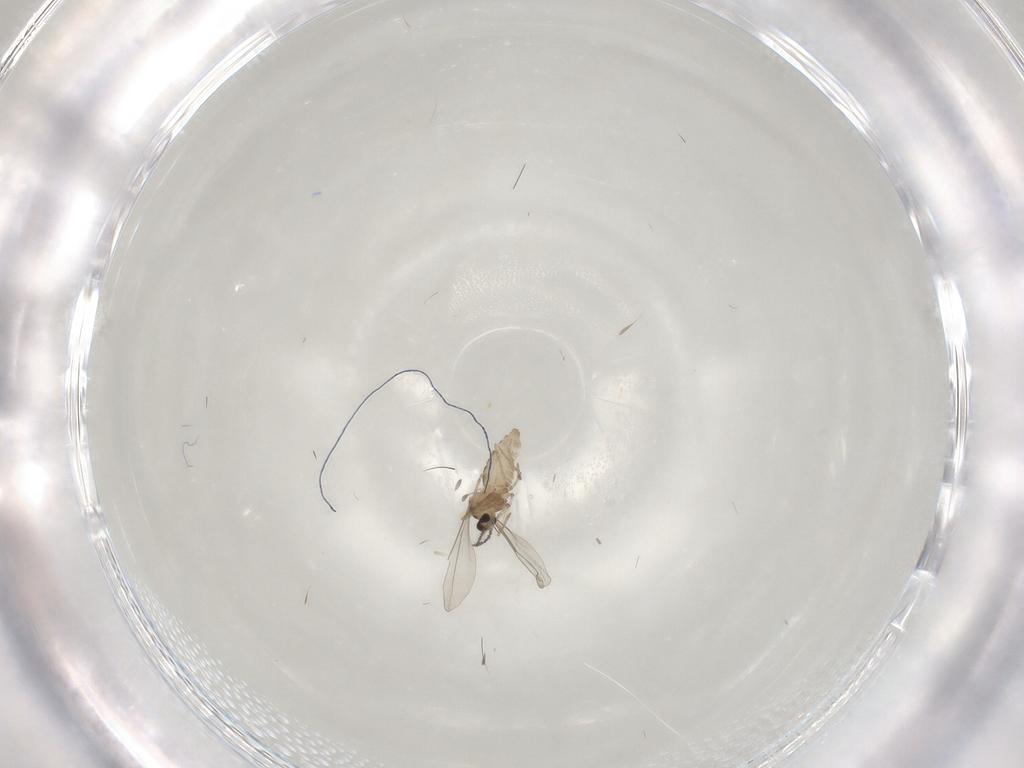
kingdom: Animalia
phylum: Arthropoda
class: Insecta
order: Diptera
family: Cecidomyiidae
